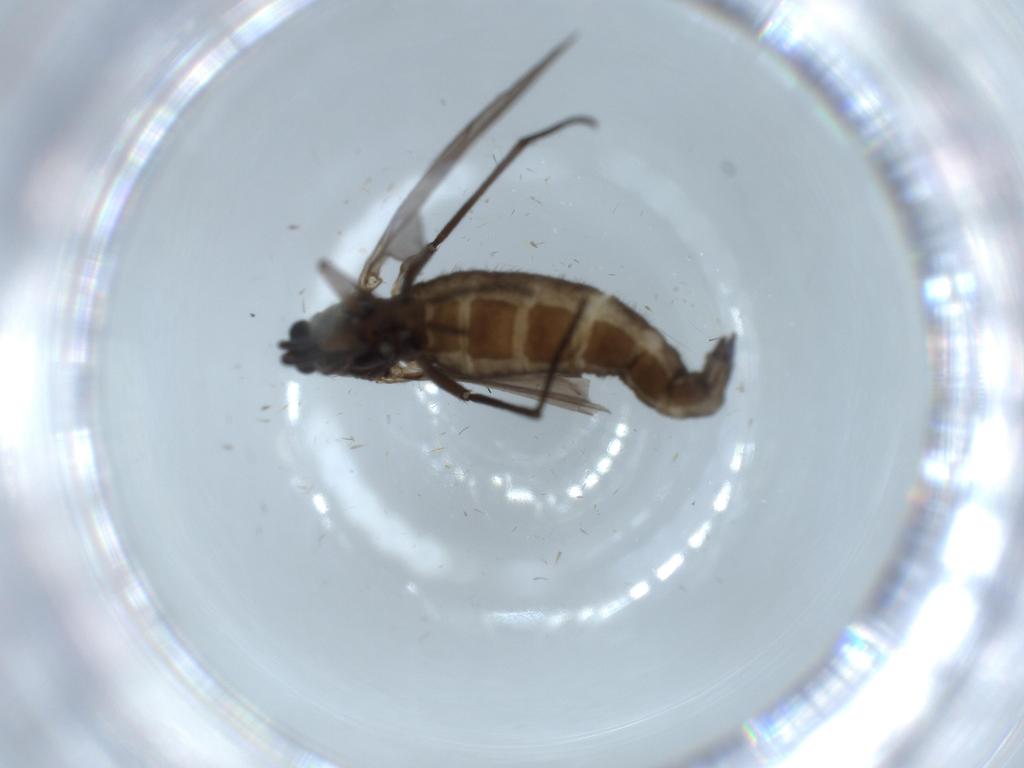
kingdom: Animalia
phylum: Arthropoda
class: Insecta
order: Diptera
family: Sciaridae
